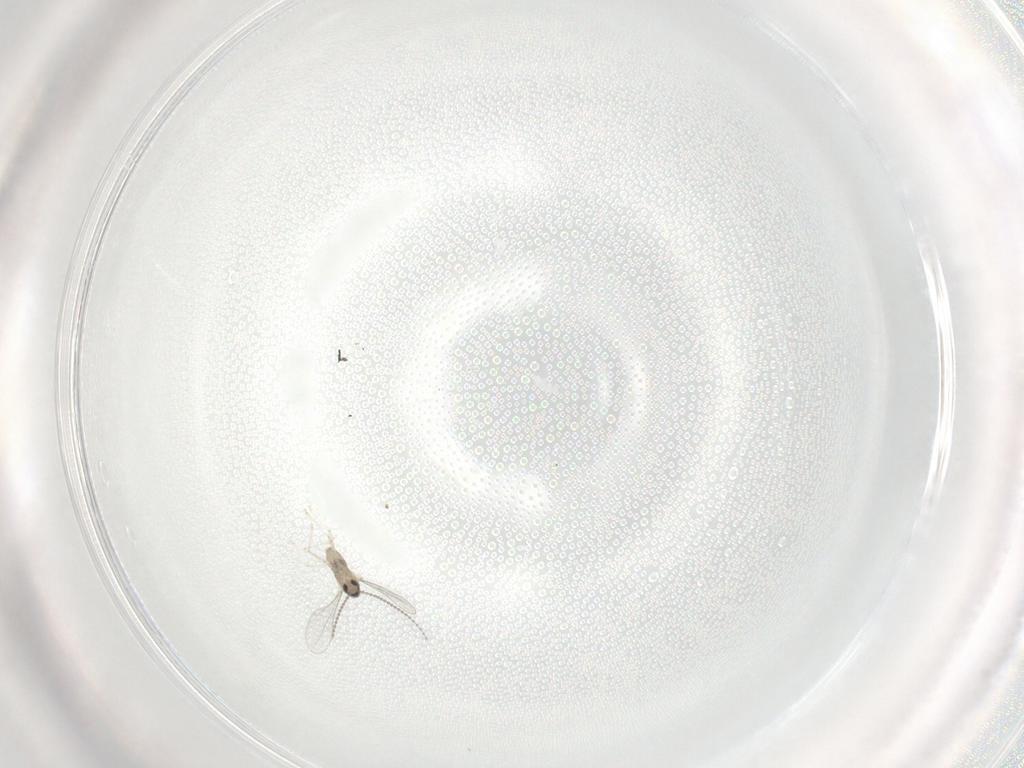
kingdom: Animalia
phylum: Arthropoda
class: Insecta
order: Diptera
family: Cecidomyiidae
